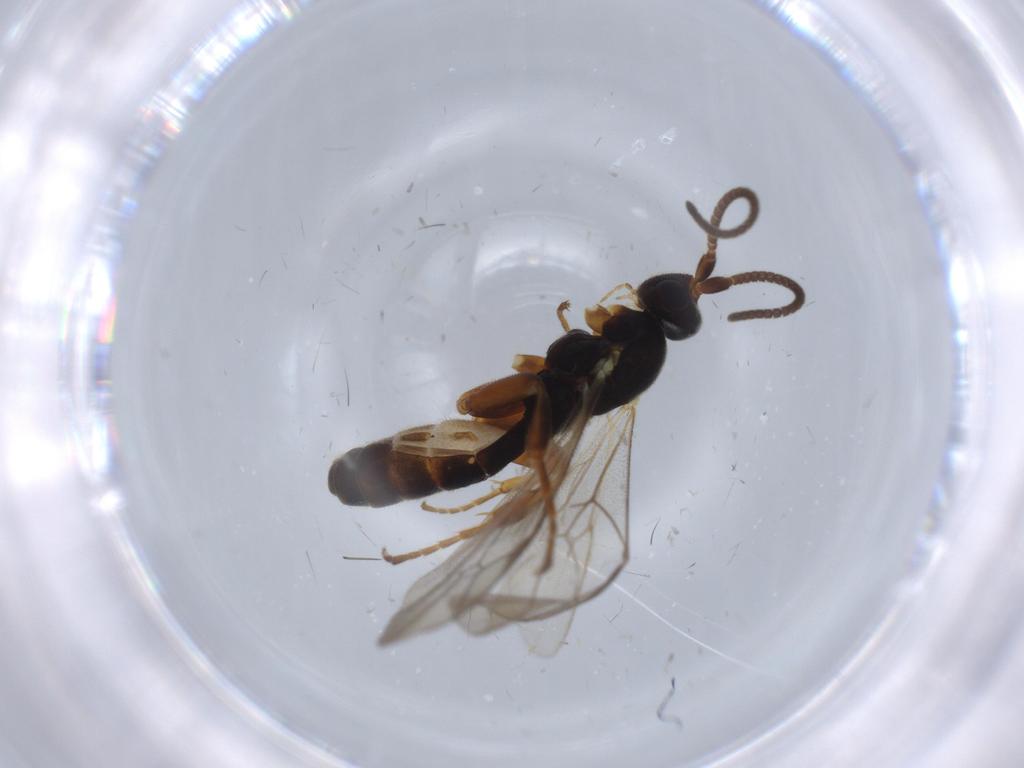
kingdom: Animalia
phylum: Arthropoda
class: Insecta
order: Hymenoptera
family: Ichneumonidae
